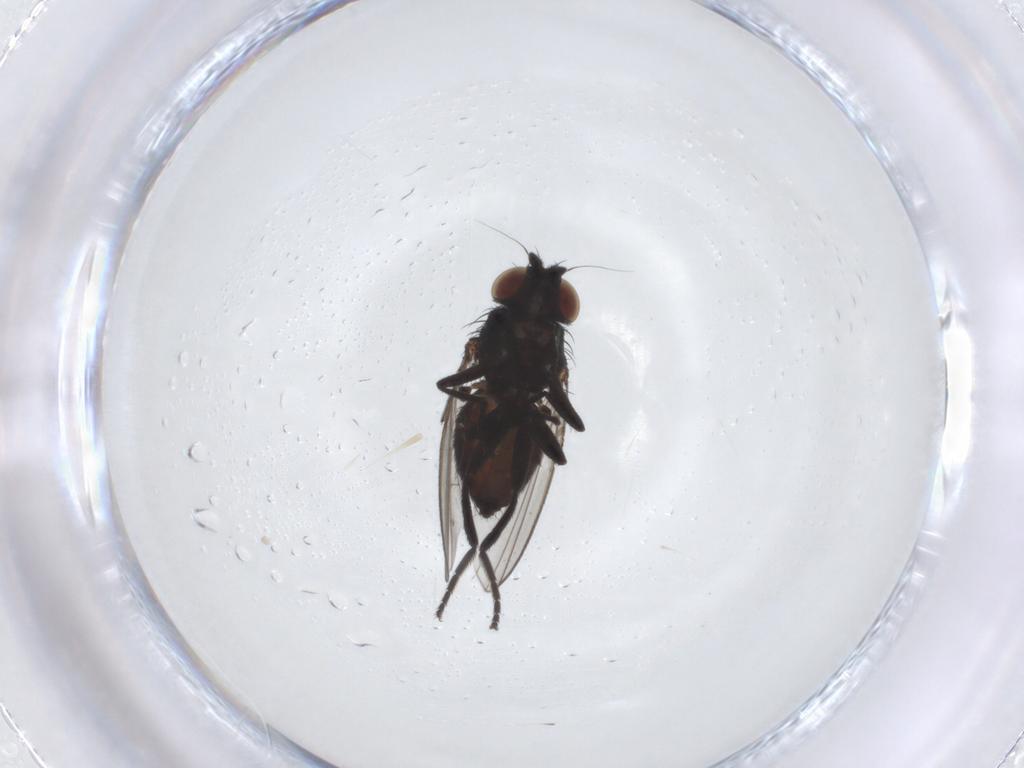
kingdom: Animalia
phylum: Arthropoda
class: Insecta
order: Diptera
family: Milichiidae
